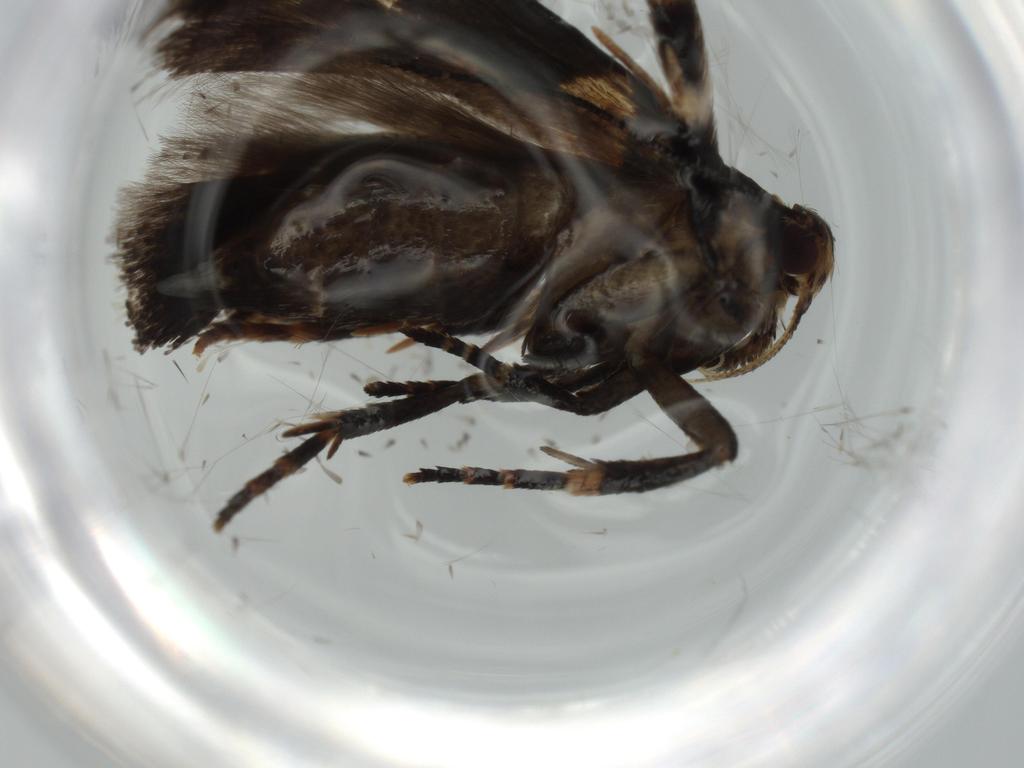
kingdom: Animalia
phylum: Arthropoda
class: Insecta
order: Lepidoptera
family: Gelechiidae
